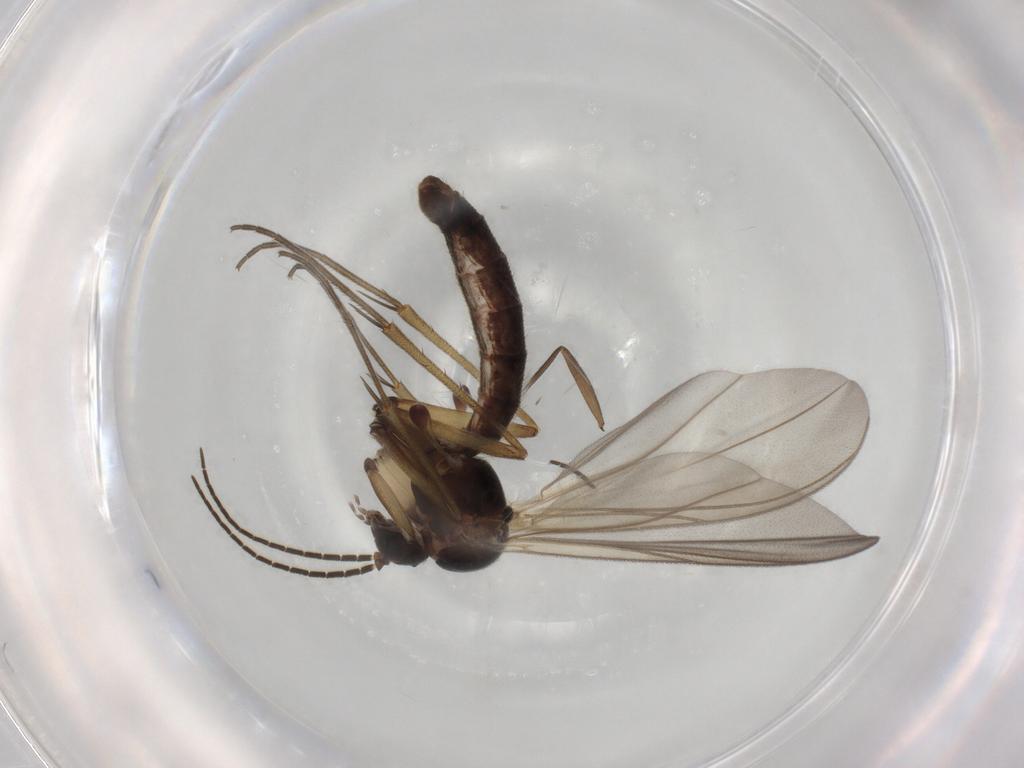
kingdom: Animalia
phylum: Arthropoda
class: Insecta
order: Diptera
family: Mycetophilidae
